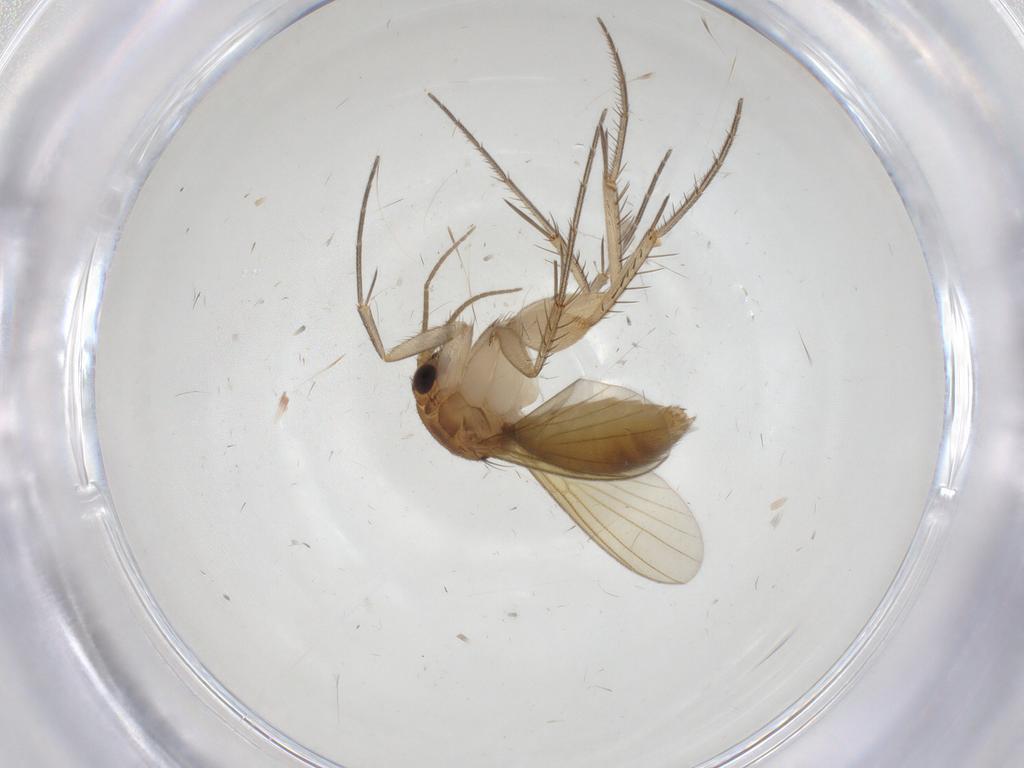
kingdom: Animalia
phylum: Arthropoda
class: Insecta
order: Diptera
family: Mycetophilidae
